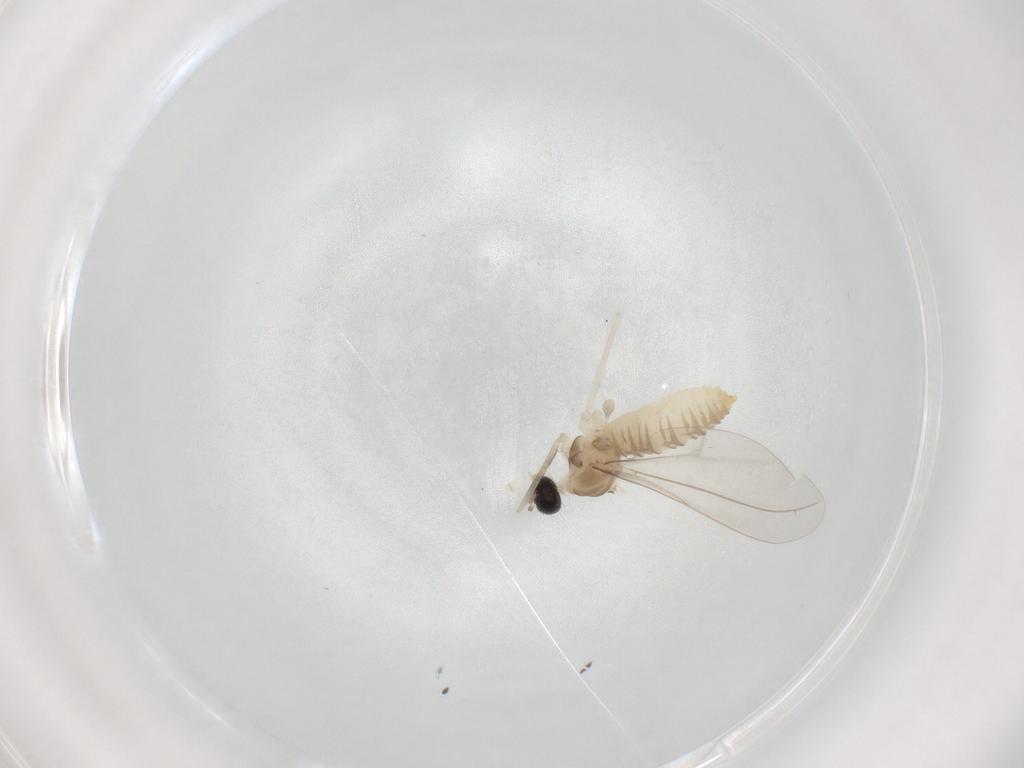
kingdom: Animalia
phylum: Arthropoda
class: Insecta
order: Diptera
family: Cecidomyiidae
